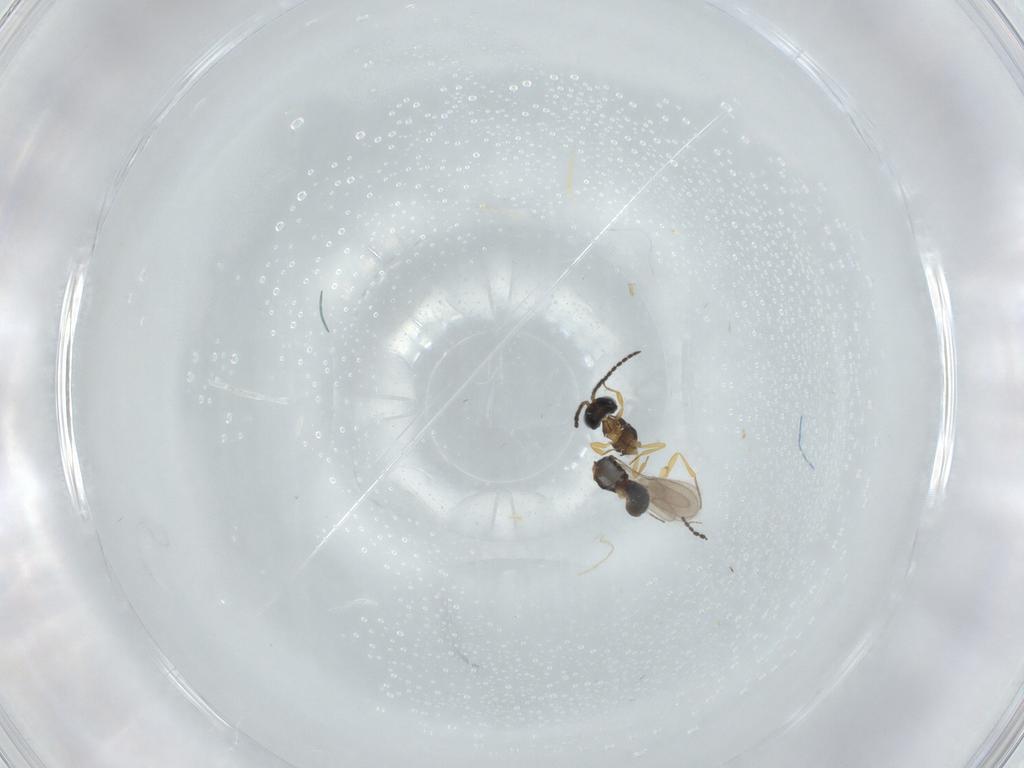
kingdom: Animalia
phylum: Arthropoda
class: Insecta
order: Hymenoptera
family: Scelionidae
